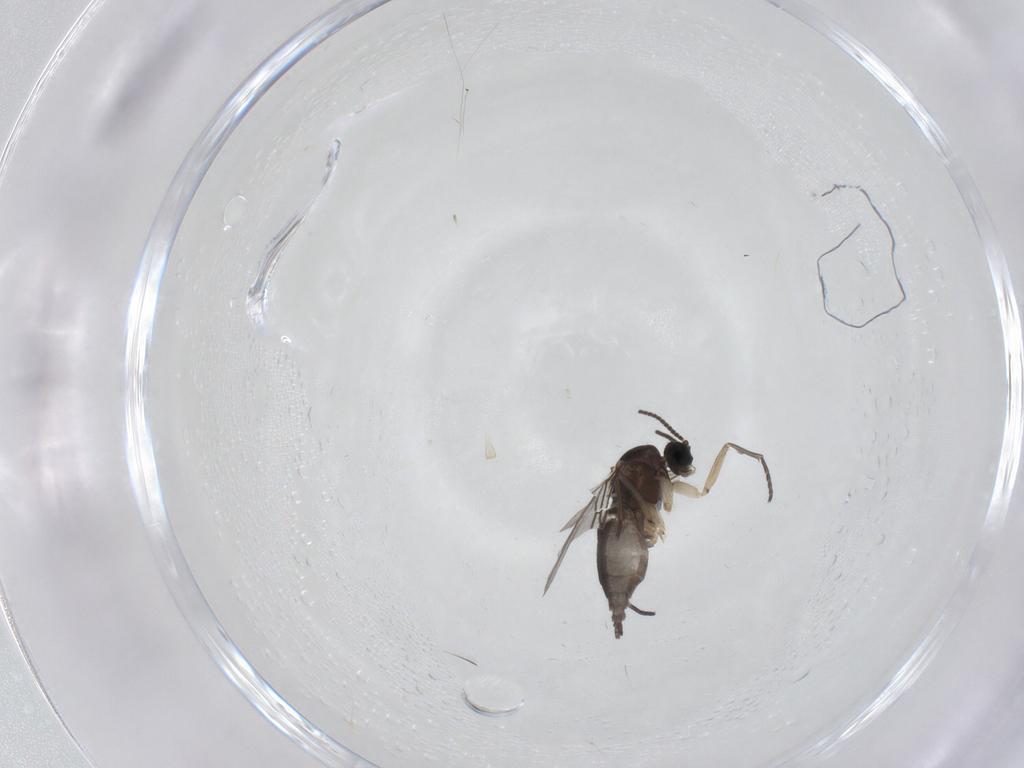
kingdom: Animalia
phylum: Arthropoda
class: Insecta
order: Diptera
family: Sciaridae
